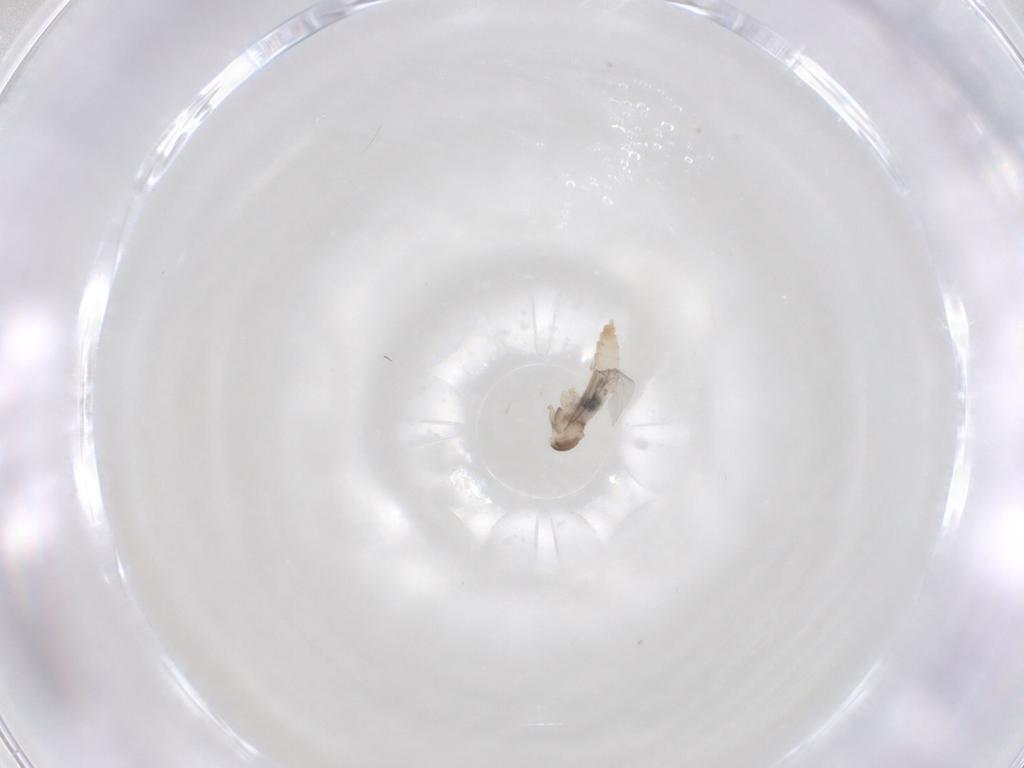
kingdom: Animalia
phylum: Arthropoda
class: Insecta
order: Diptera
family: Cecidomyiidae
